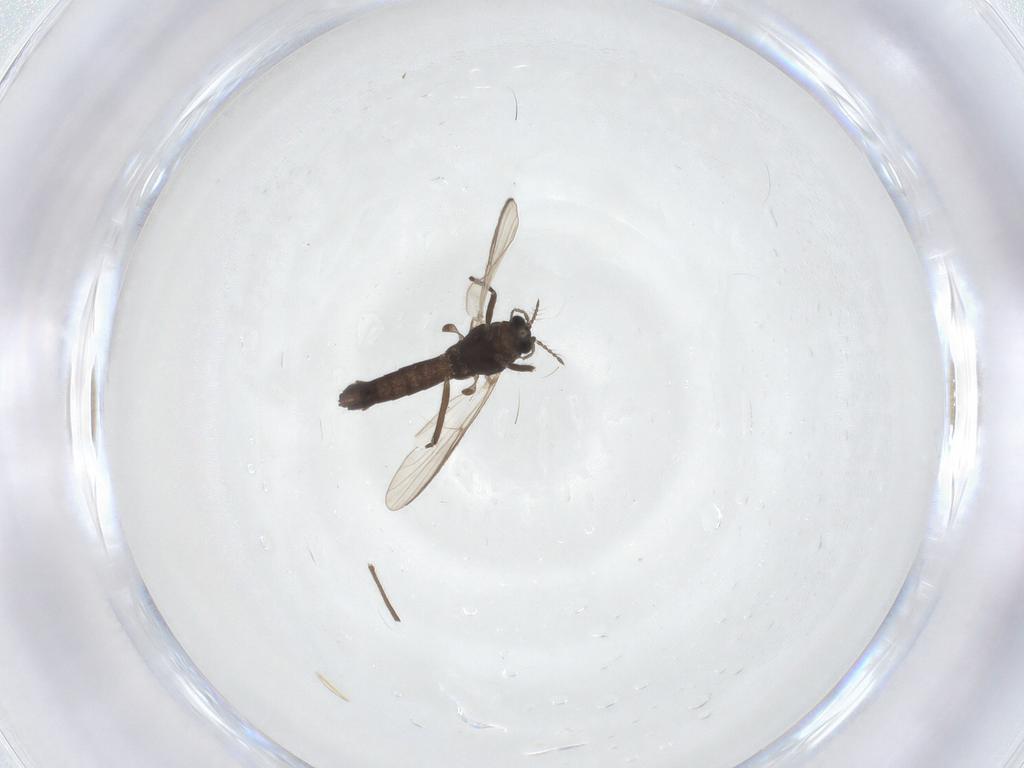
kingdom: Animalia
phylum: Arthropoda
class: Insecta
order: Diptera
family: Chironomidae
